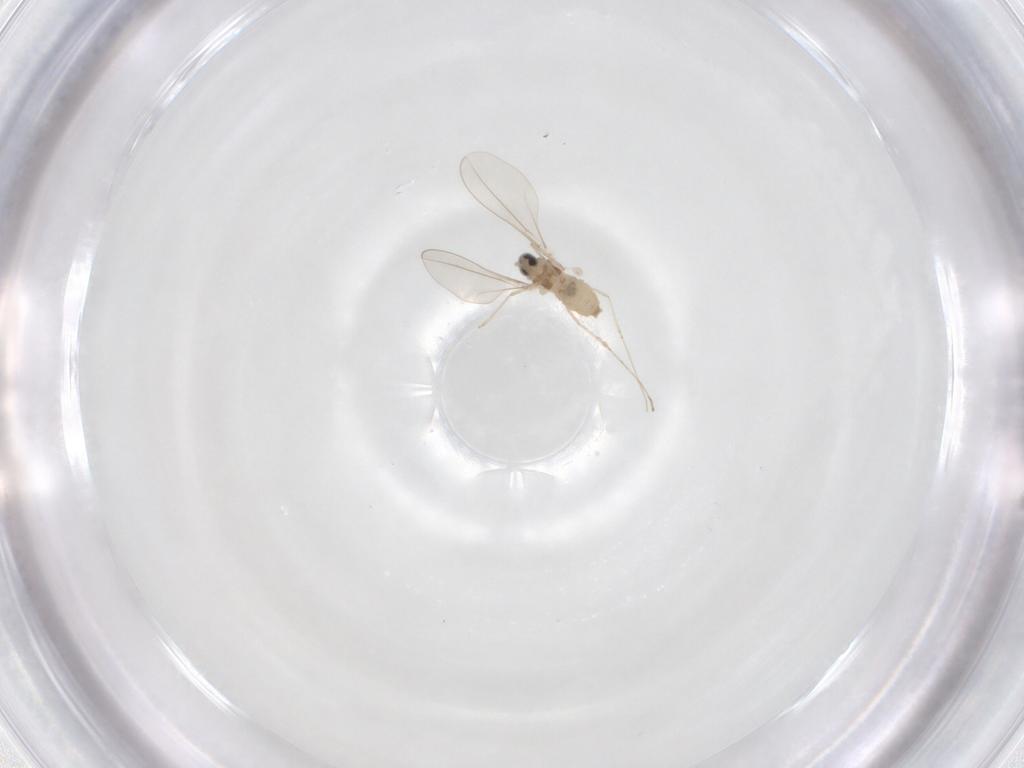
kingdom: Animalia
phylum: Arthropoda
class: Insecta
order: Diptera
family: Cecidomyiidae
